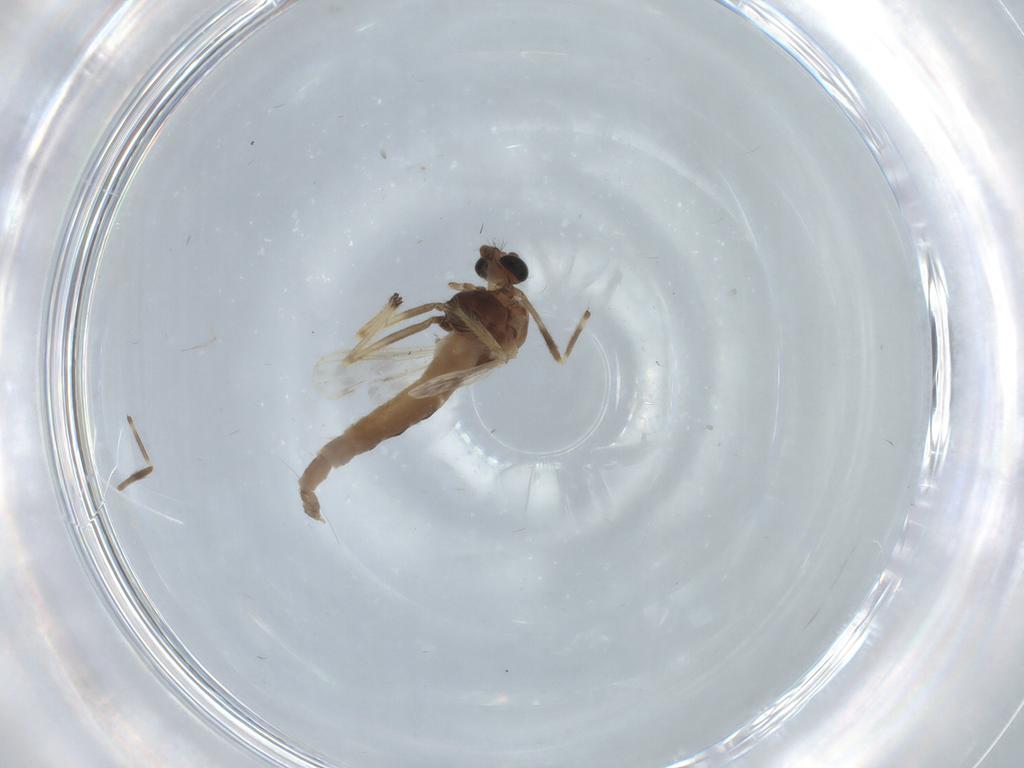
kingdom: Animalia
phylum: Arthropoda
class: Insecta
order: Diptera
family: Chironomidae
